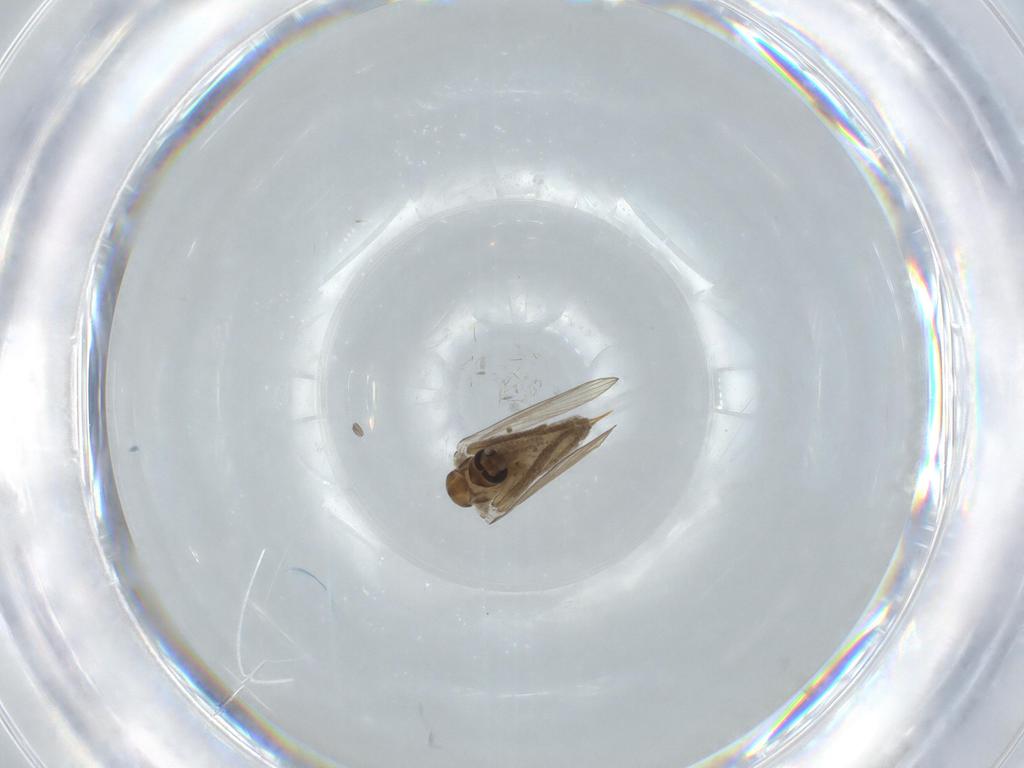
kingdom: Animalia
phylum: Arthropoda
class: Insecta
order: Diptera
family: Psychodidae
